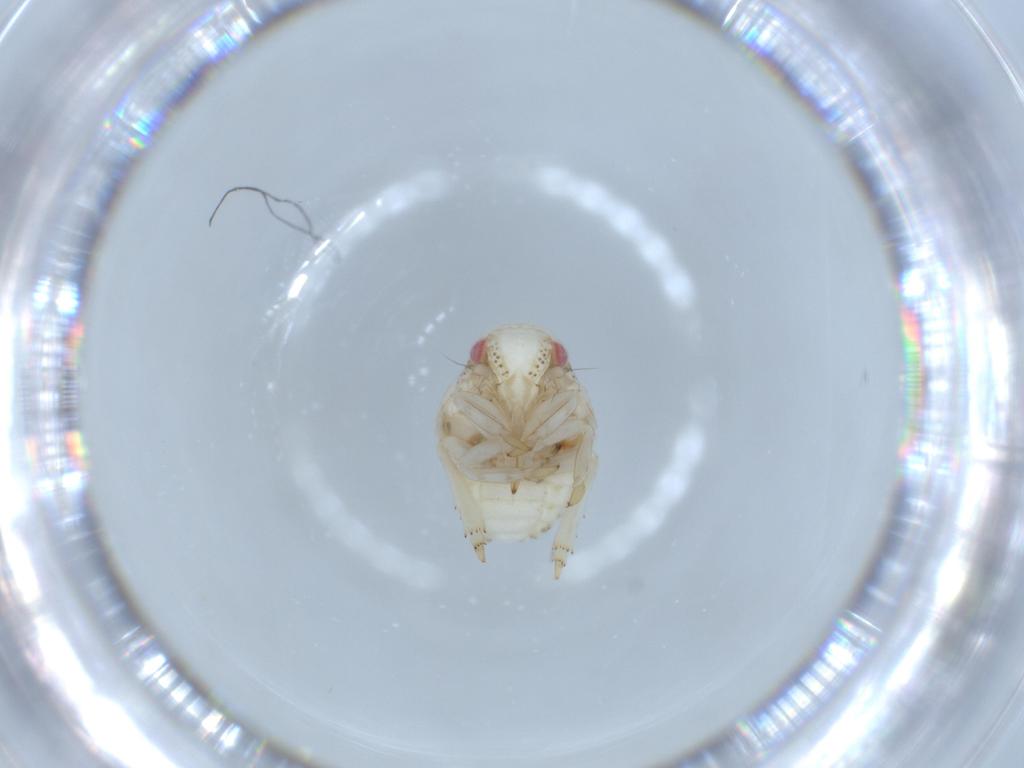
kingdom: Animalia
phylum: Arthropoda
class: Insecta
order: Hemiptera
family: Acanaloniidae
